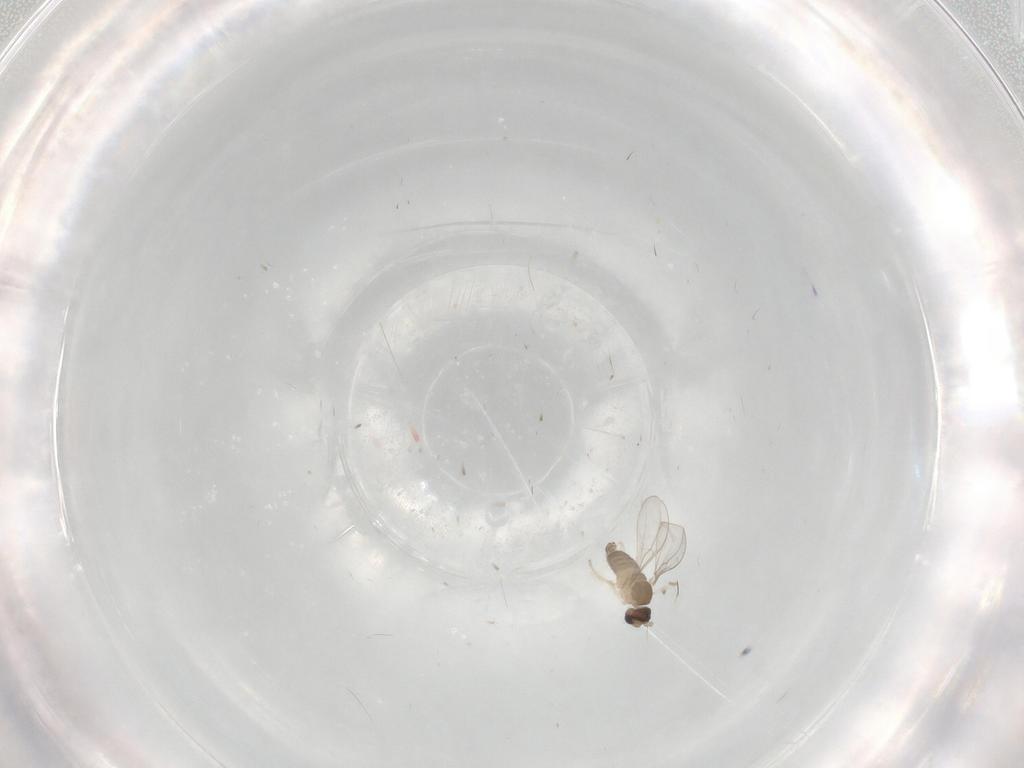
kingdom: Animalia
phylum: Arthropoda
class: Insecta
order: Diptera
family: Cecidomyiidae
